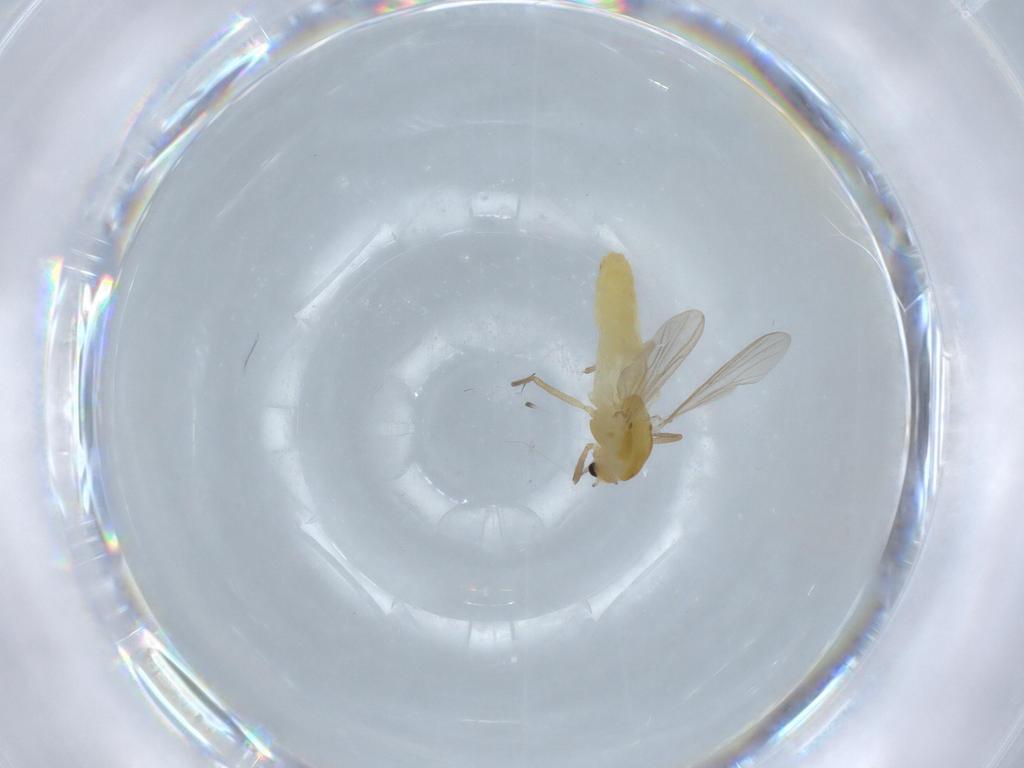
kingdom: Animalia
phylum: Arthropoda
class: Insecta
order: Diptera
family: Chironomidae
